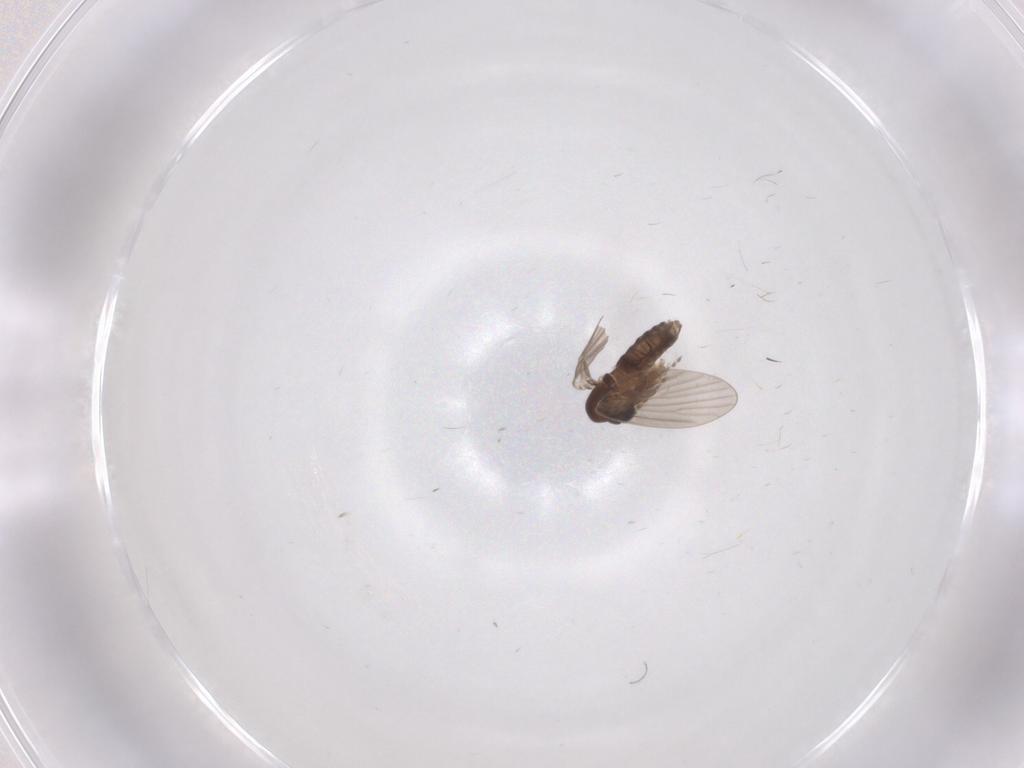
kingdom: Animalia
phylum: Arthropoda
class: Insecta
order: Diptera
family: Psychodidae
